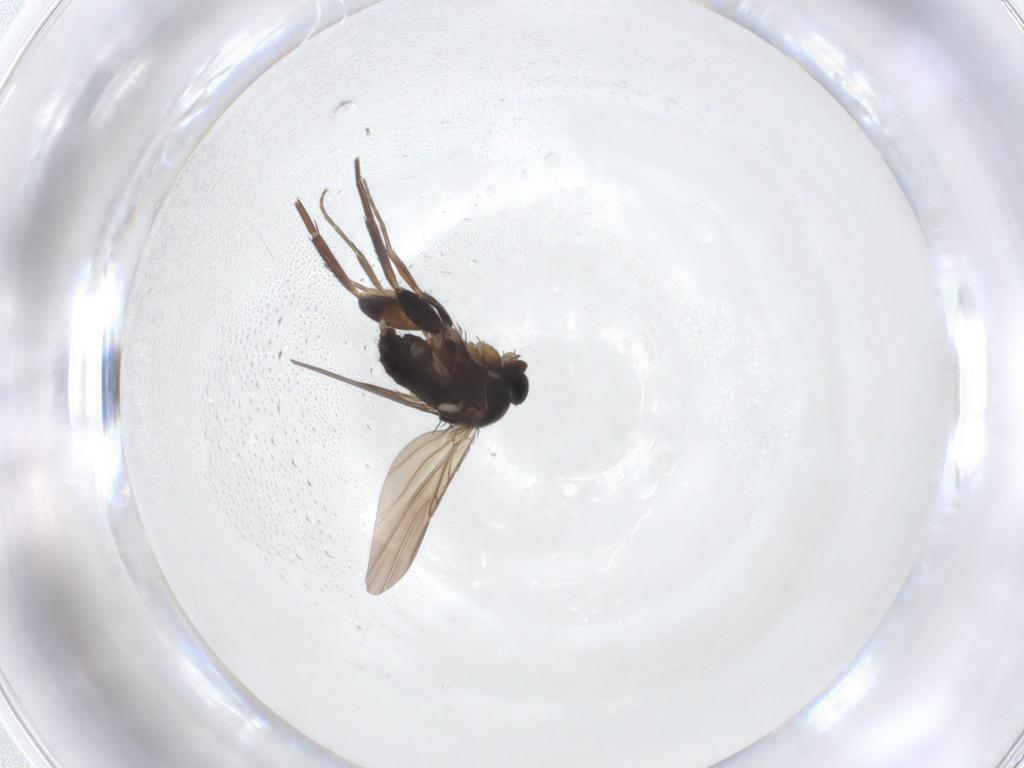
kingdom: Animalia
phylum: Arthropoda
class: Insecta
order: Diptera
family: Phoridae
